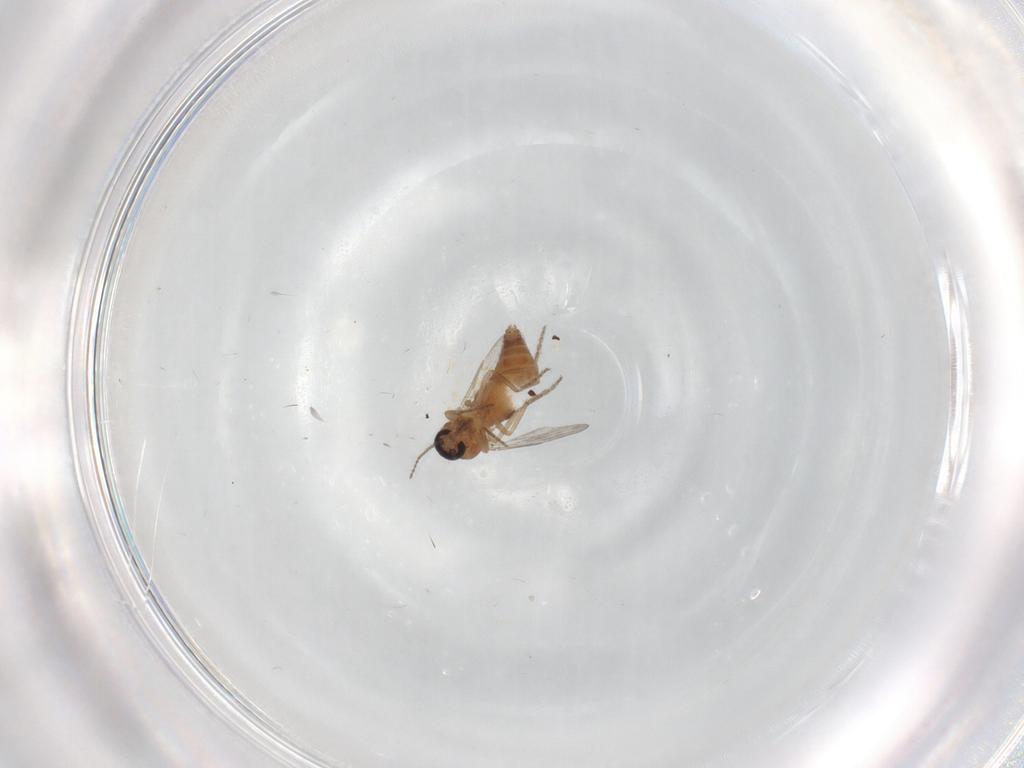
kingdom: Animalia
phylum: Arthropoda
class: Insecta
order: Diptera
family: Ceratopogonidae
